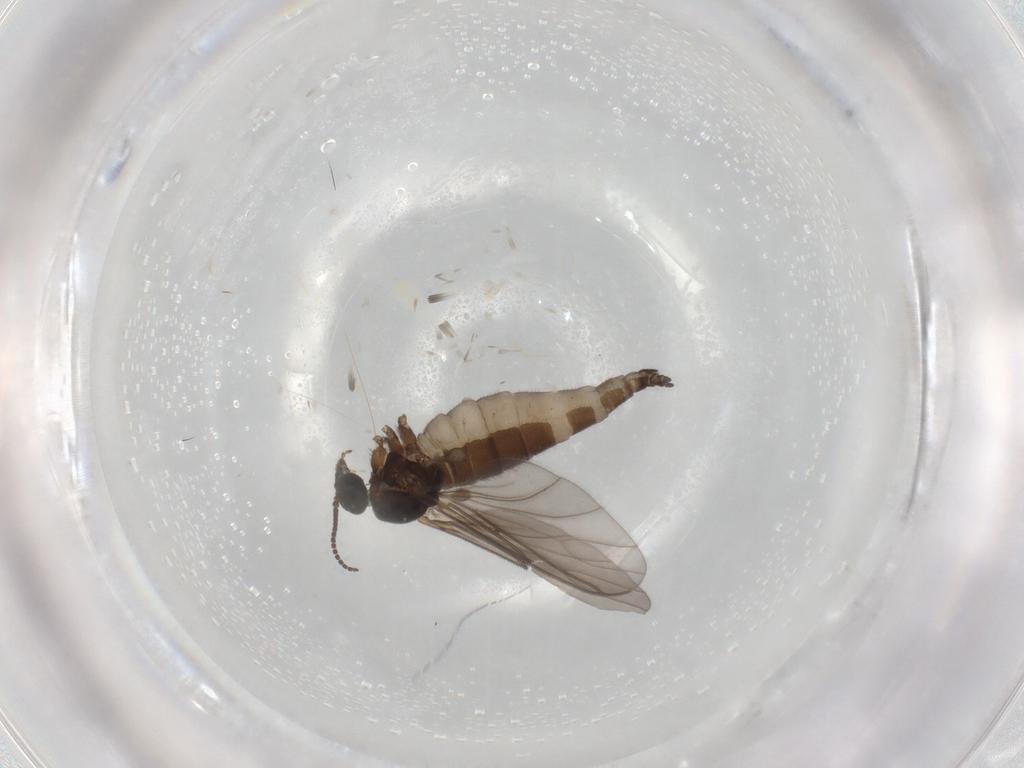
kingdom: Animalia
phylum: Arthropoda
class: Insecta
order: Diptera
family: Sciaridae
